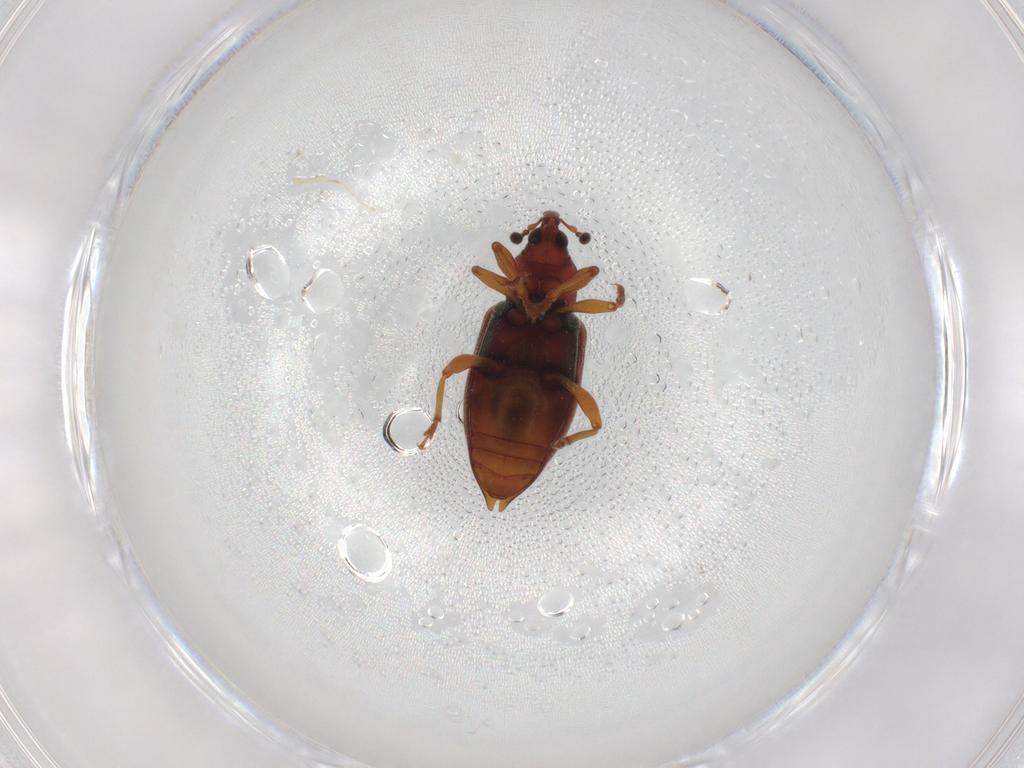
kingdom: Animalia
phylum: Arthropoda
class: Insecta
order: Coleoptera
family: Curculionidae
